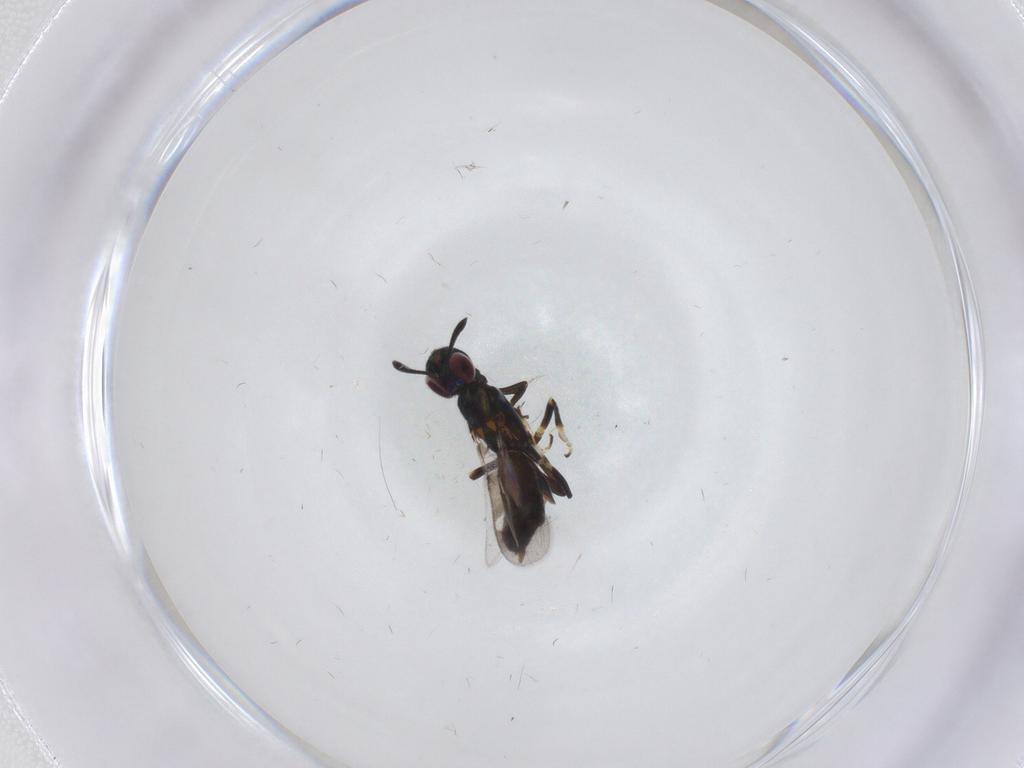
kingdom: Animalia
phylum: Arthropoda
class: Insecta
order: Hymenoptera
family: Eupelmidae
